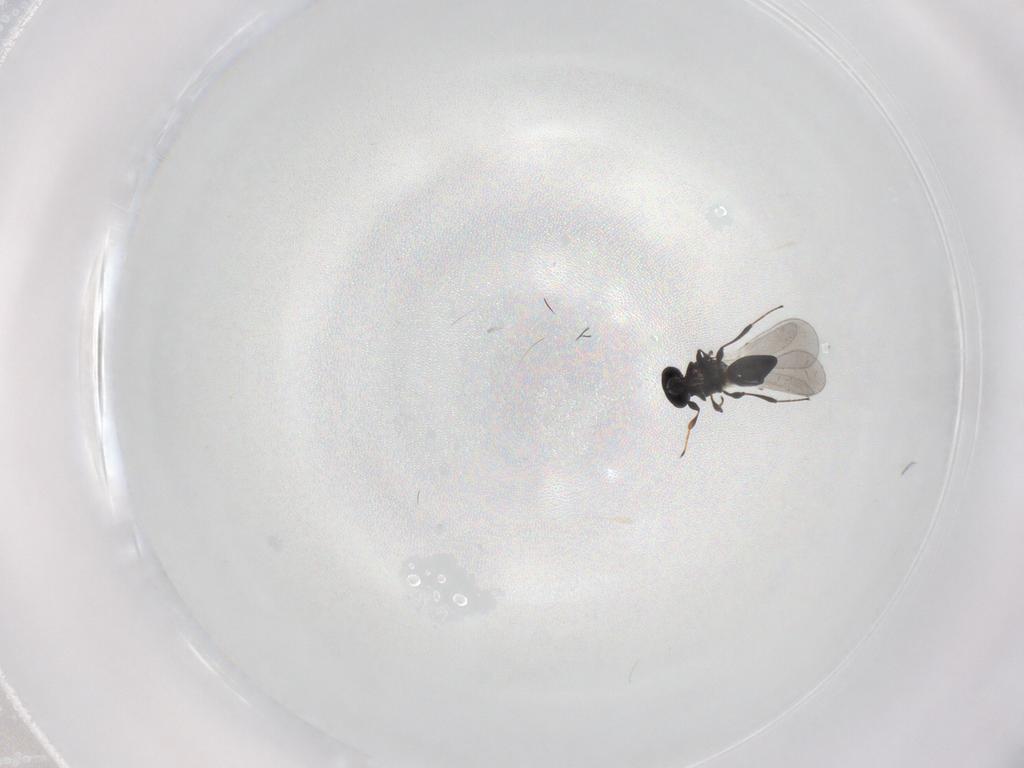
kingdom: Animalia
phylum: Arthropoda
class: Insecta
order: Hymenoptera
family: Platygastridae
